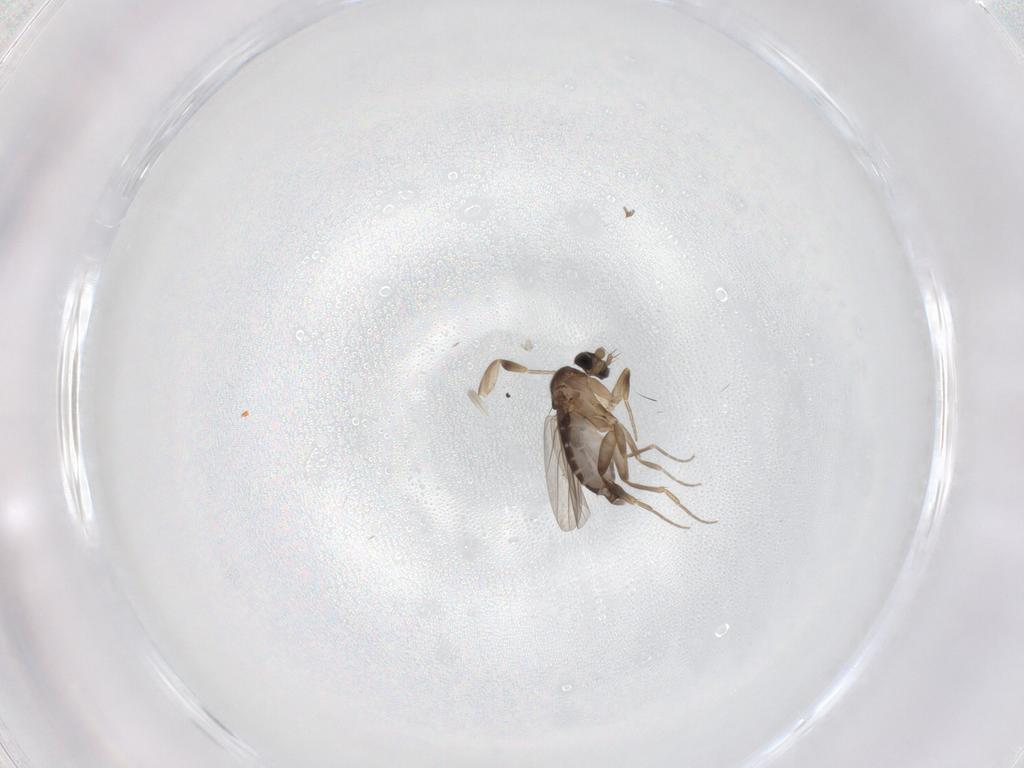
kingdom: Animalia
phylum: Arthropoda
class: Insecta
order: Diptera
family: Phoridae
